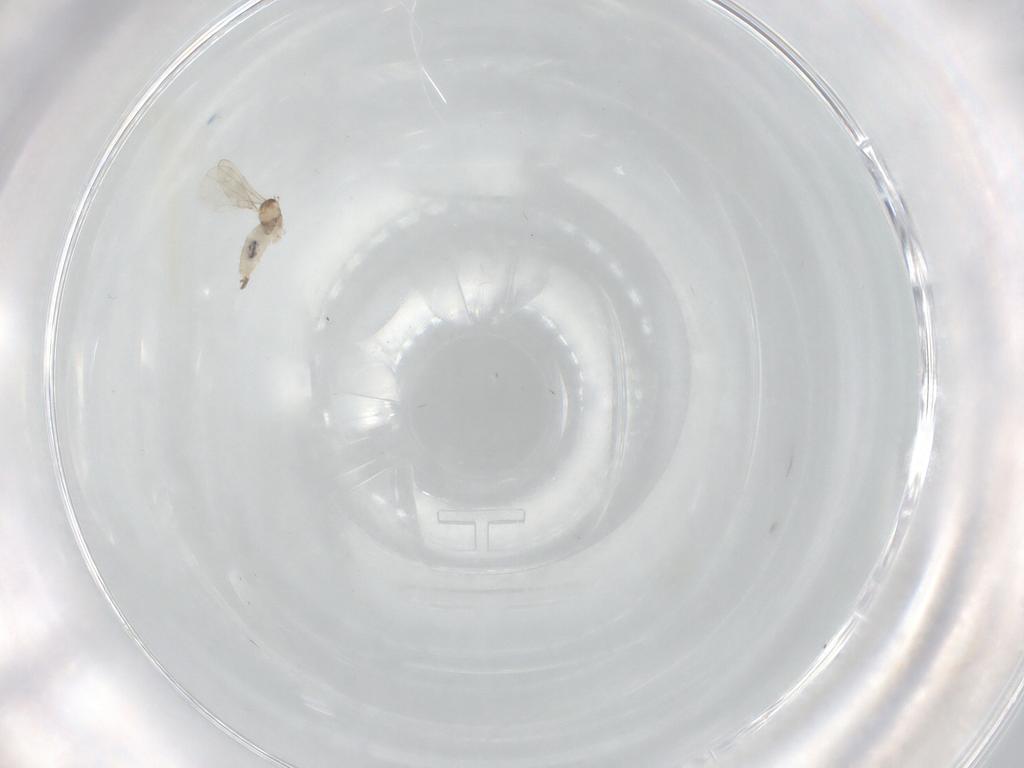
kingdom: Animalia
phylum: Arthropoda
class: Insecta
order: Diptera
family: Cecidomyiidae
